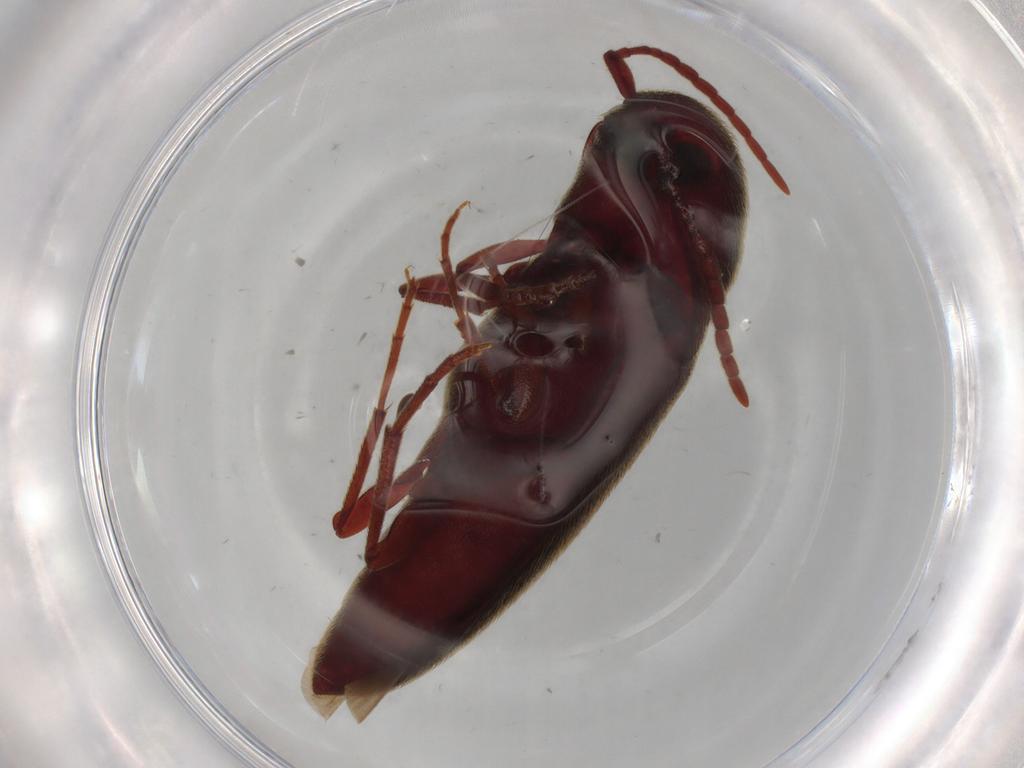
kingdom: Animalia
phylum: Arthropoda
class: Insecta
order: Coleoptera
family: Eucnemidae
